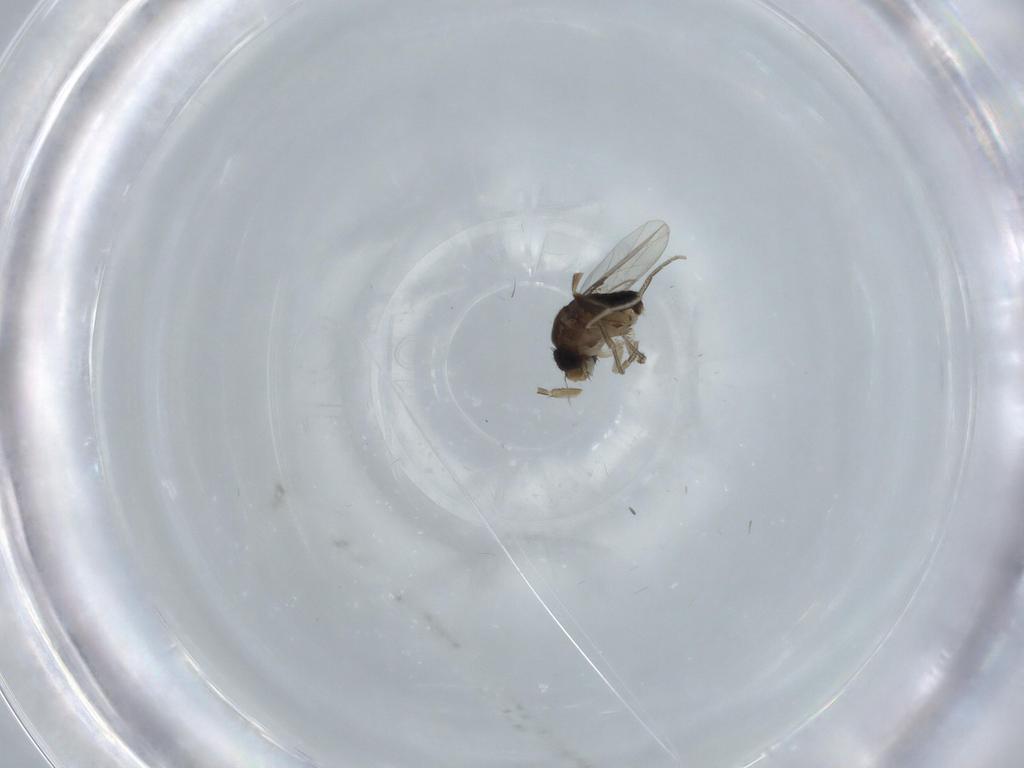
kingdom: Animalia
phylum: Arthropoda
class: Insecta
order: Diptera
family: Phoridae
